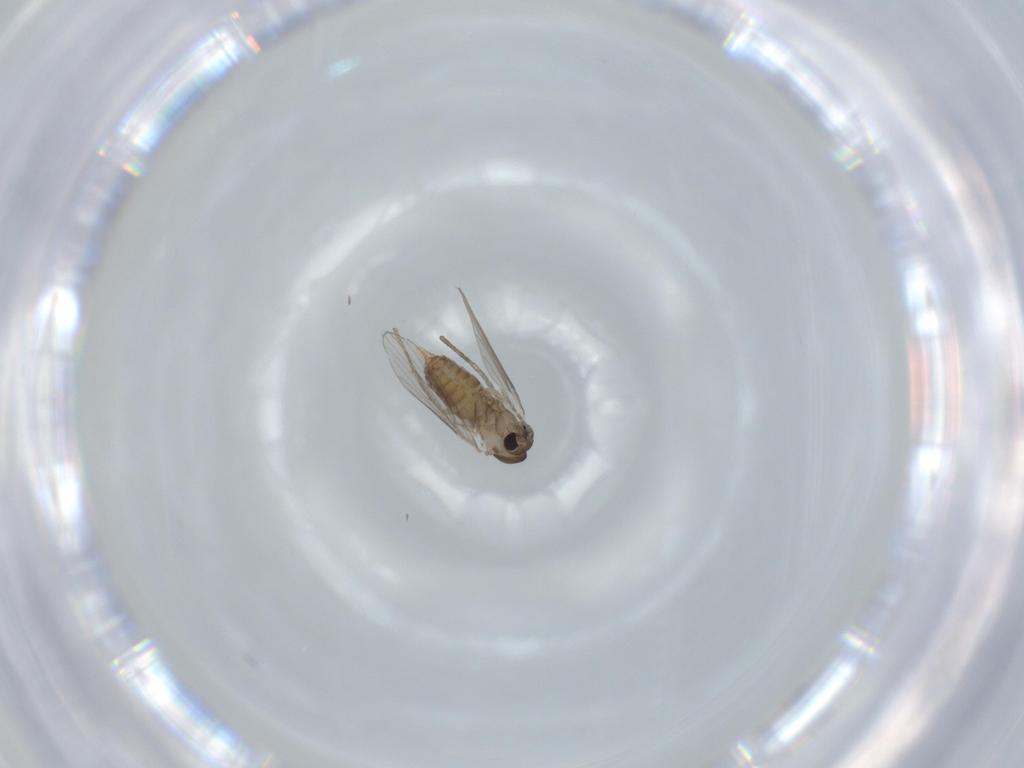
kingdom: Animalia
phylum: Arthropoda
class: Insecta
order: Diptera
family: Psychodidae
